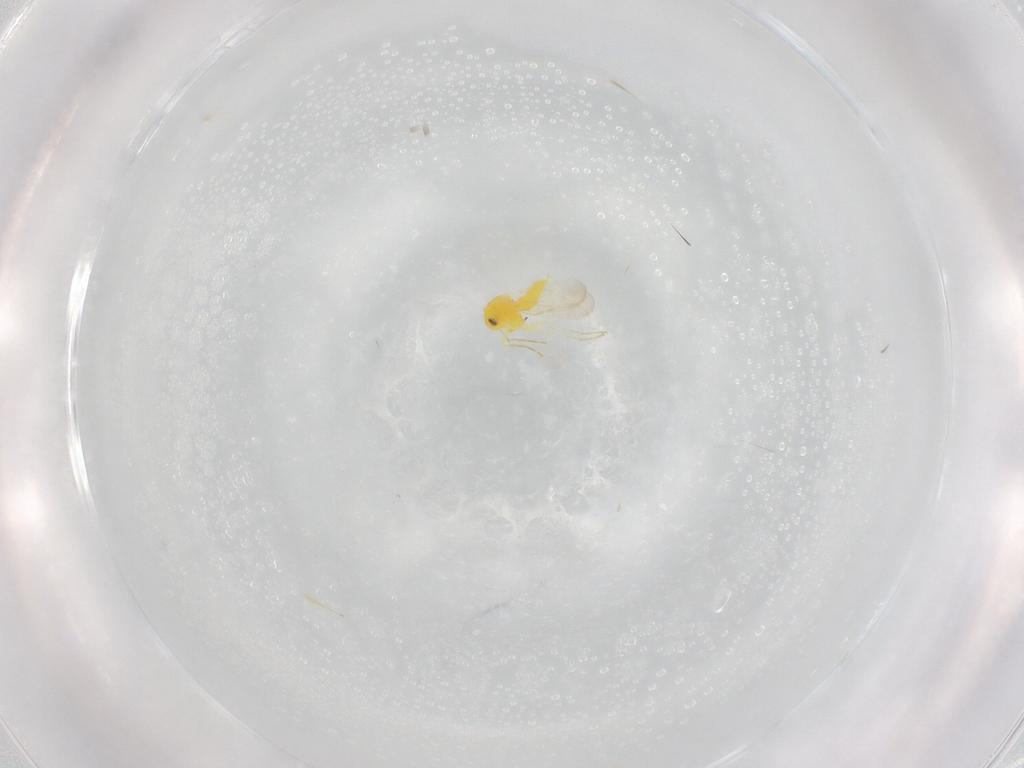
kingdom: Animalia
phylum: Arthropoda
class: Insecta
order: Hemiptera
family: Aleyrodidae
